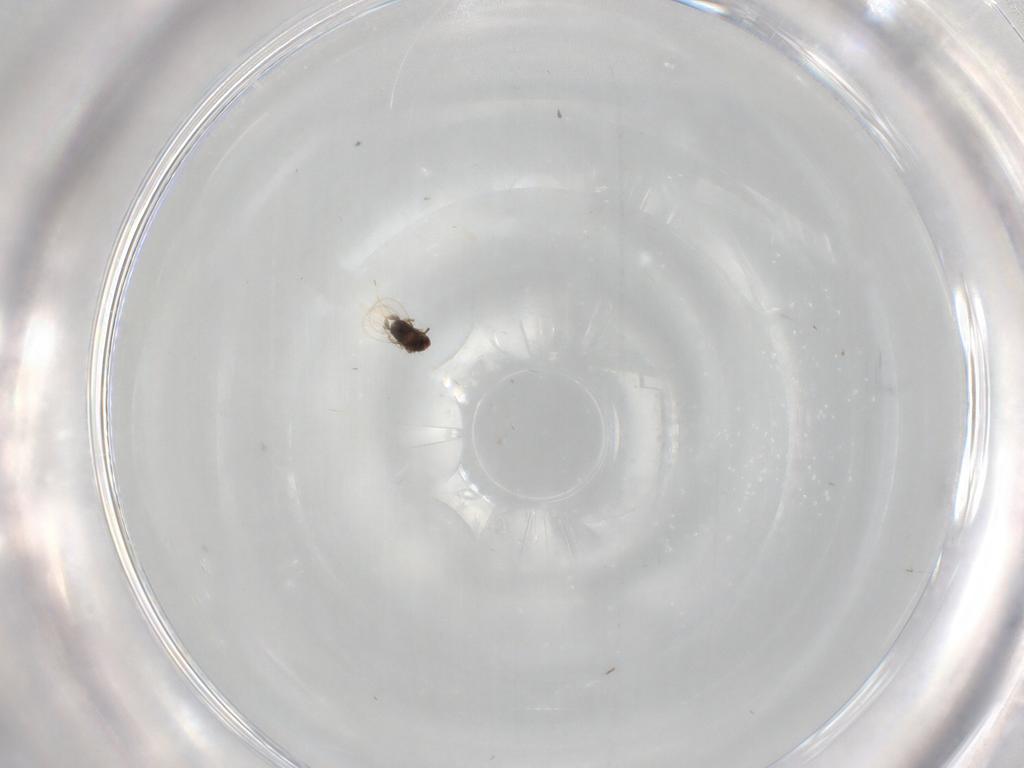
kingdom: Animalia
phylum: Arthropoda
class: Insecta
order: Hymenoptera
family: Trichogrammatidae
